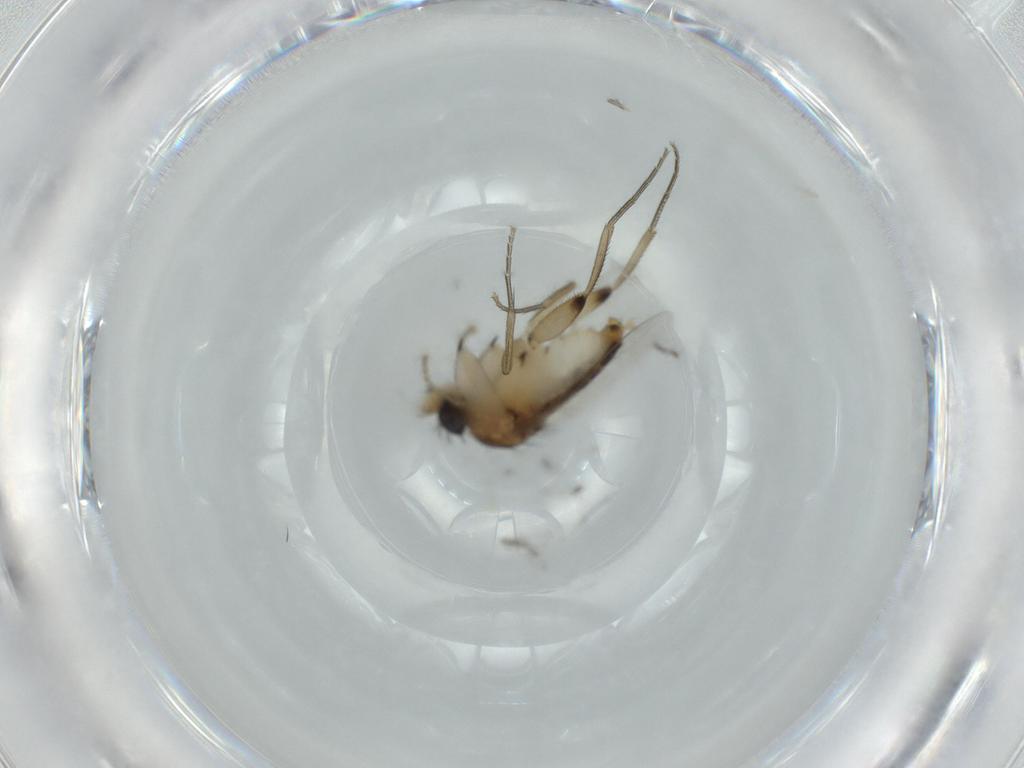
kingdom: Animalia
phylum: Arthropoda
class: Insecta
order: Diptera
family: Phoridae
